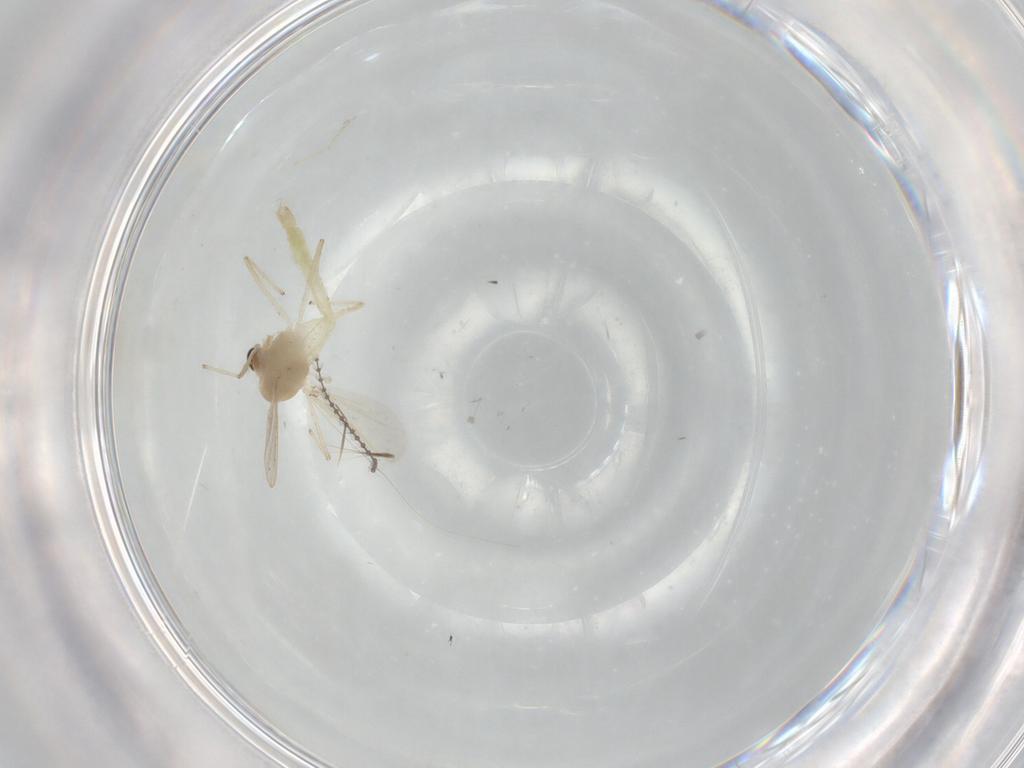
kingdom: Animalia
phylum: Arthropoda
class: Insecta
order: Diptera
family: Chironomidae
